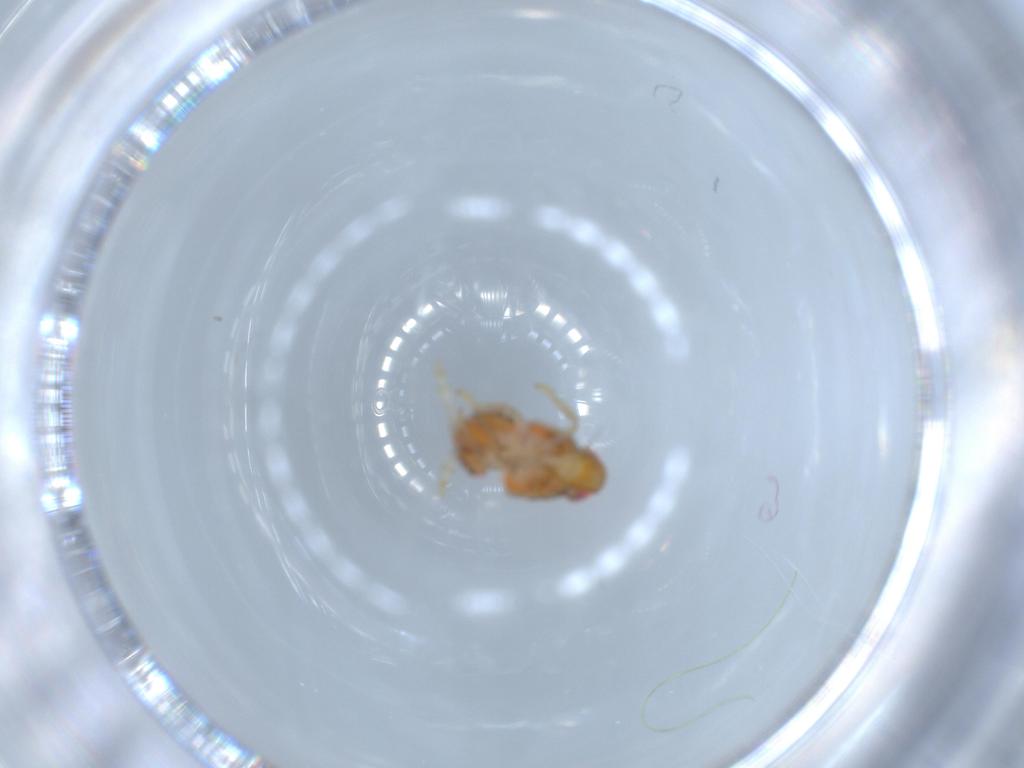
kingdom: Animalia
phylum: Arthropoda
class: Insecta
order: Hemiptera
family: Issidae
